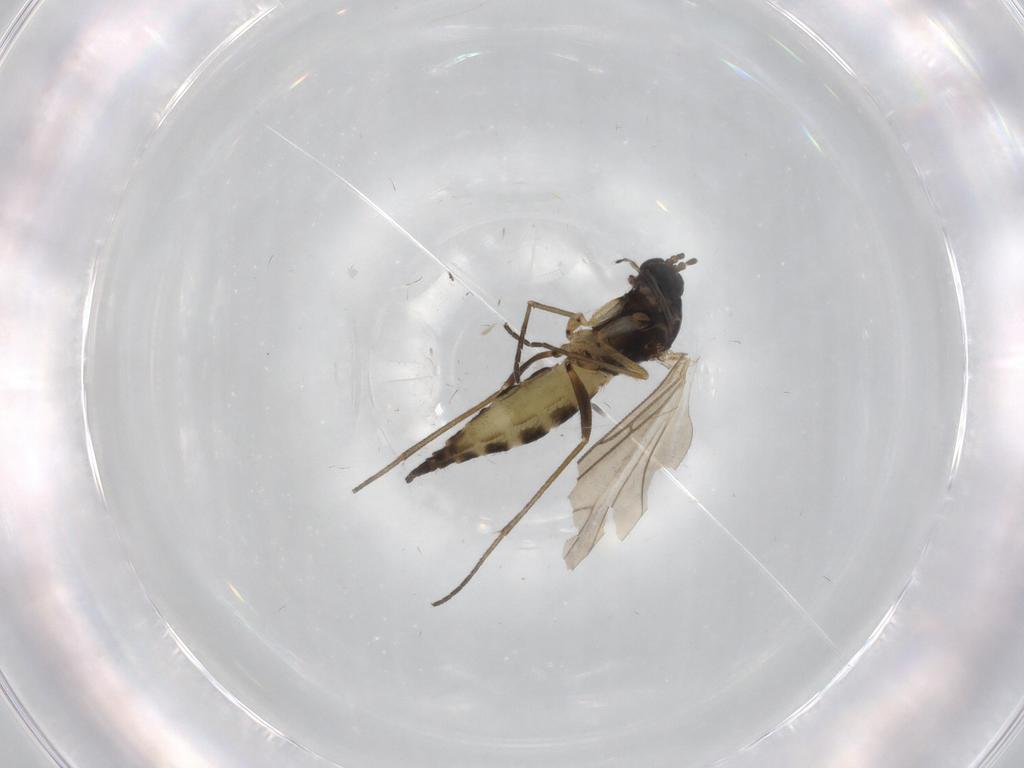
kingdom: Animalia
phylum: Arthropoda
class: Insecta
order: Diptera
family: Sciaridae
